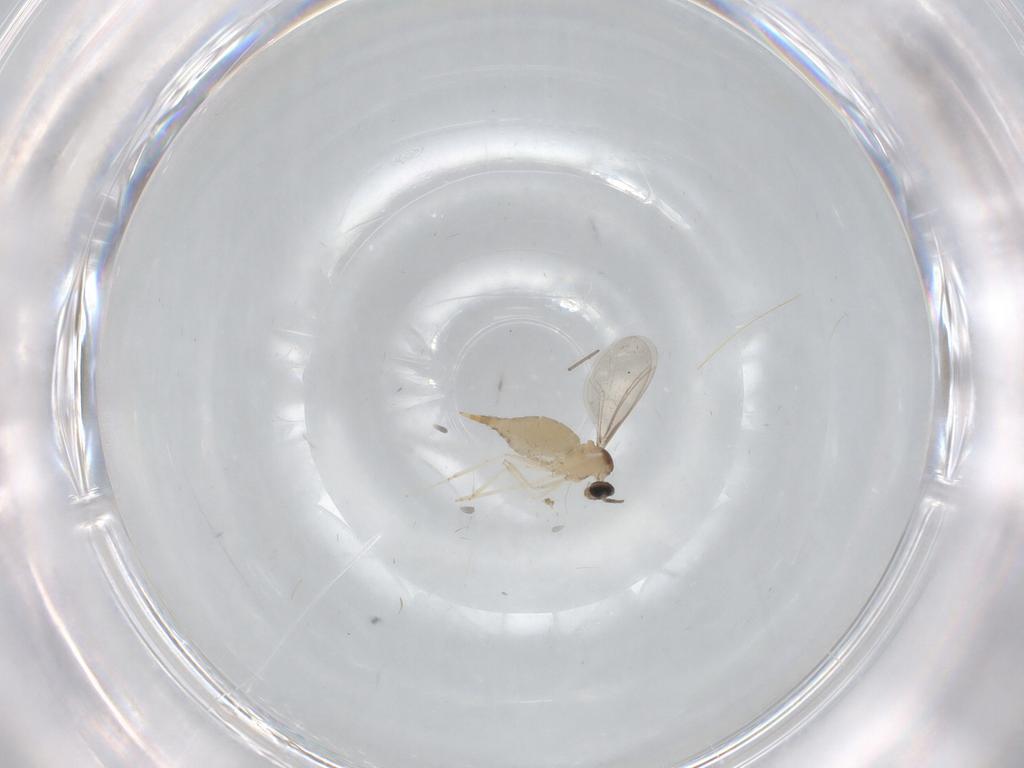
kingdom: Animalia
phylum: Arthropoda
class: Insecta
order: Diptera
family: Cecidomyiidae
